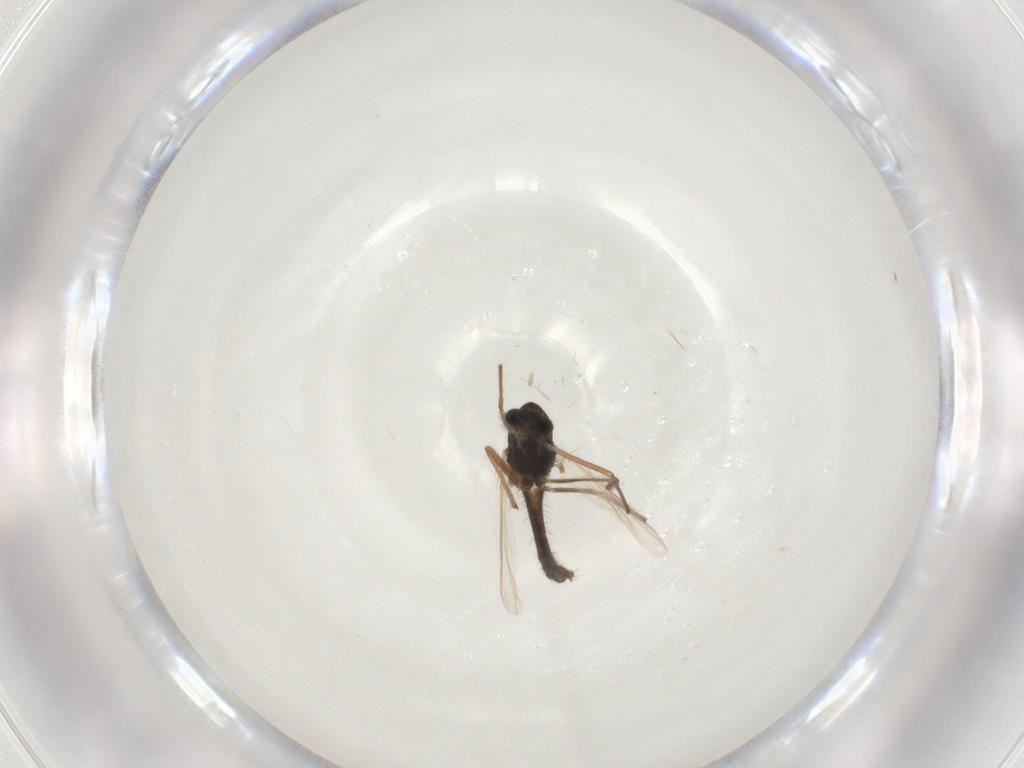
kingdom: Animalia
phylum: Arthropoda
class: Insecta
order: Diptera
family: Chironomidae
